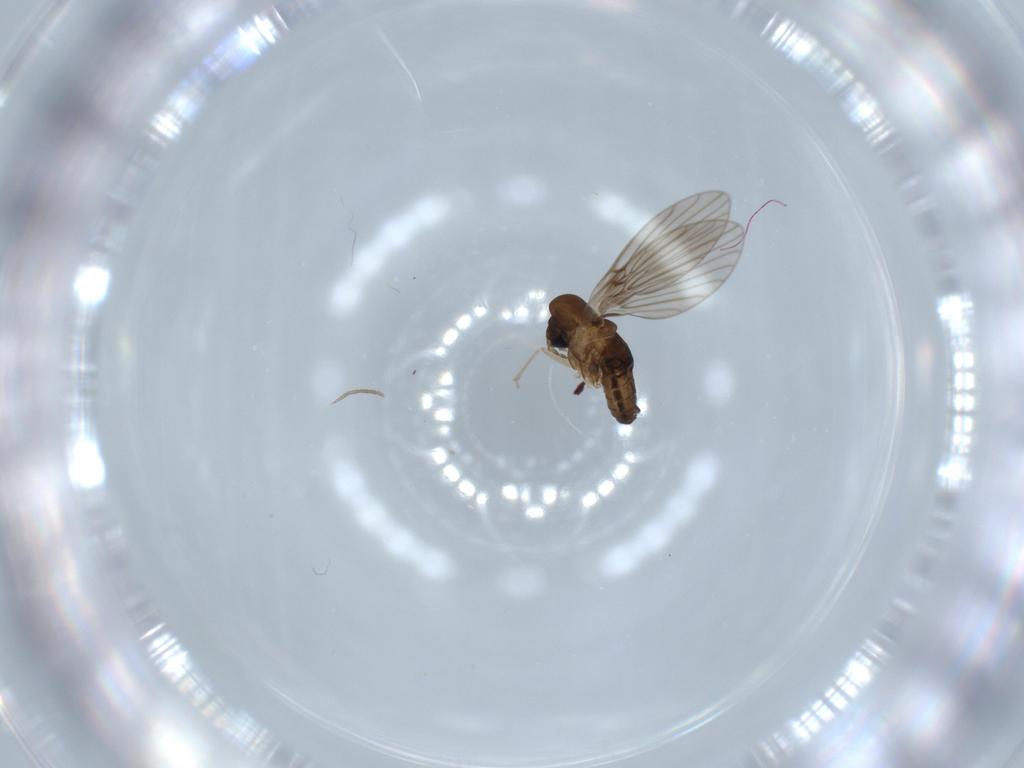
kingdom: Animalia
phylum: Arthropoda
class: Insecta
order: Diptera
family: Psychodidae
